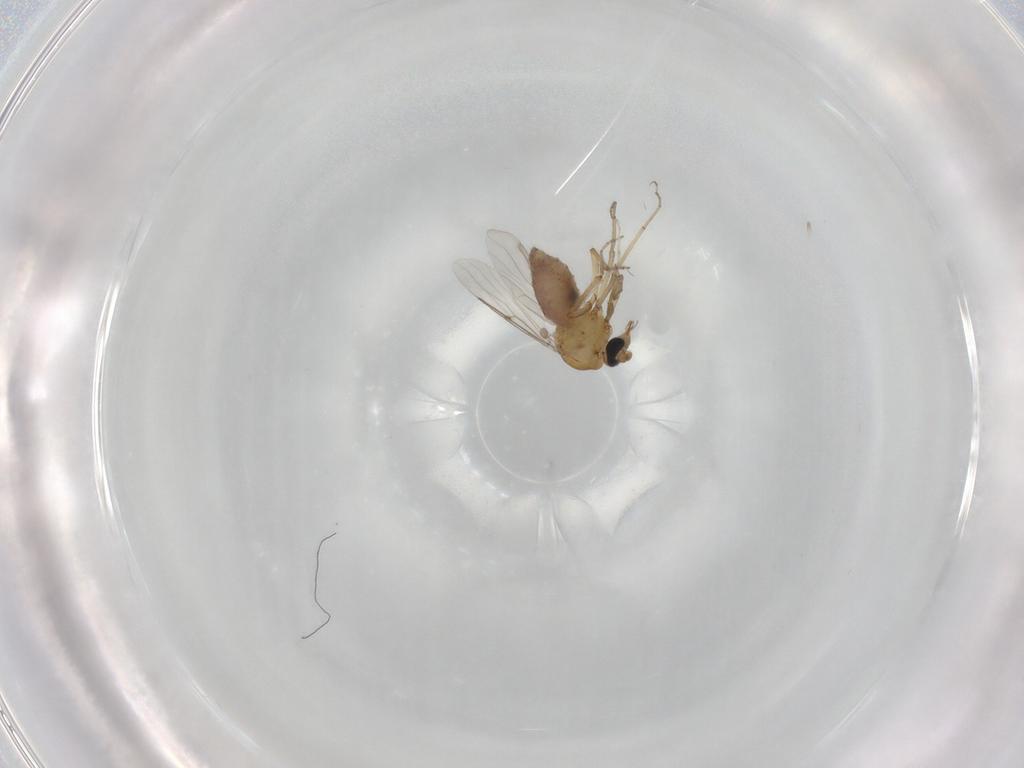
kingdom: Animalia
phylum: Arthropoda
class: Insecta
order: Diptera
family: Cecidomyiidae
